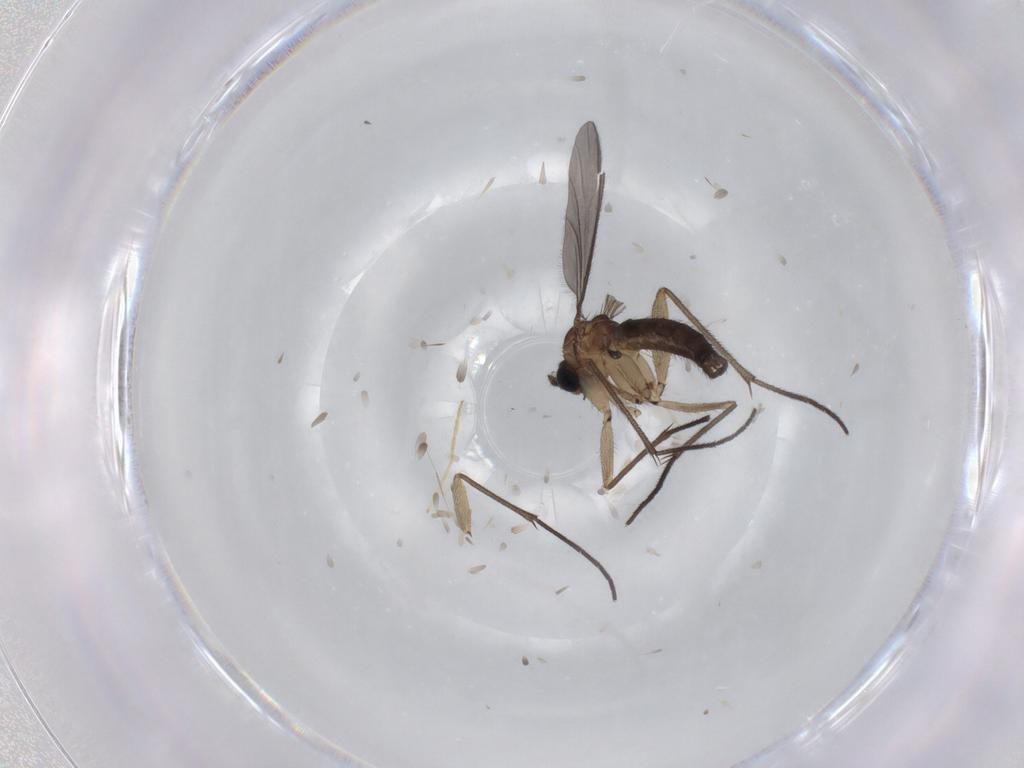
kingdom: Animalia
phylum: Arthropoda
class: Insecta
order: Diptera
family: Sciaridae
